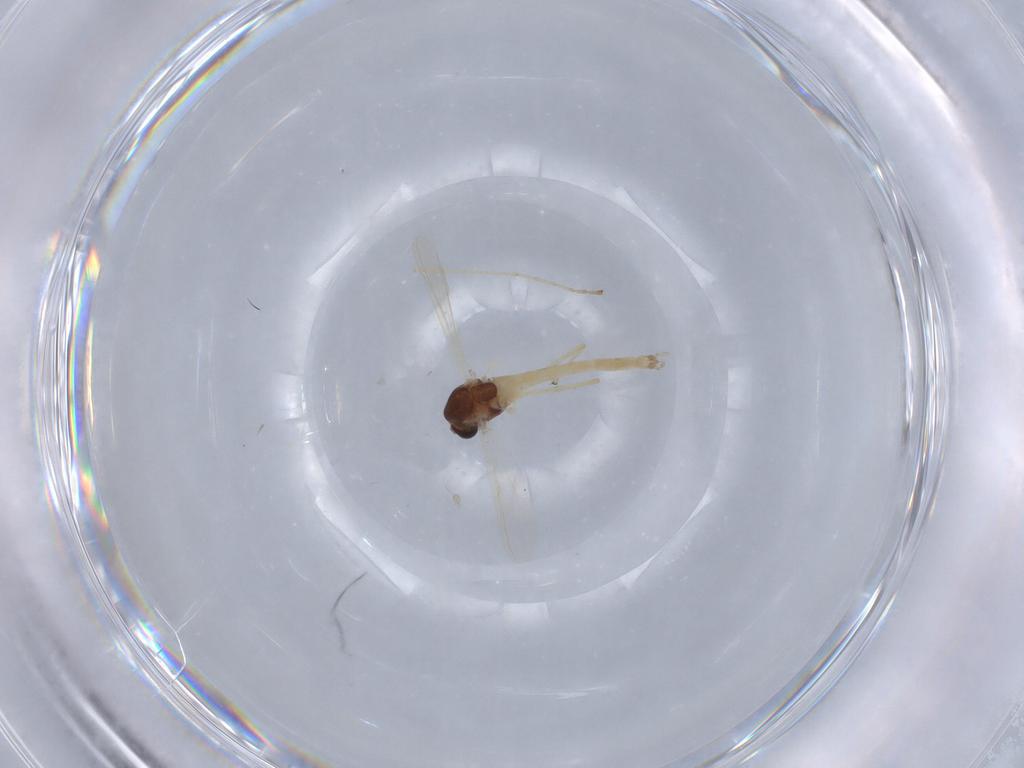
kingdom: Animalia
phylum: Arthropoda
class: Insecta
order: Diptera
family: Chironomidae
